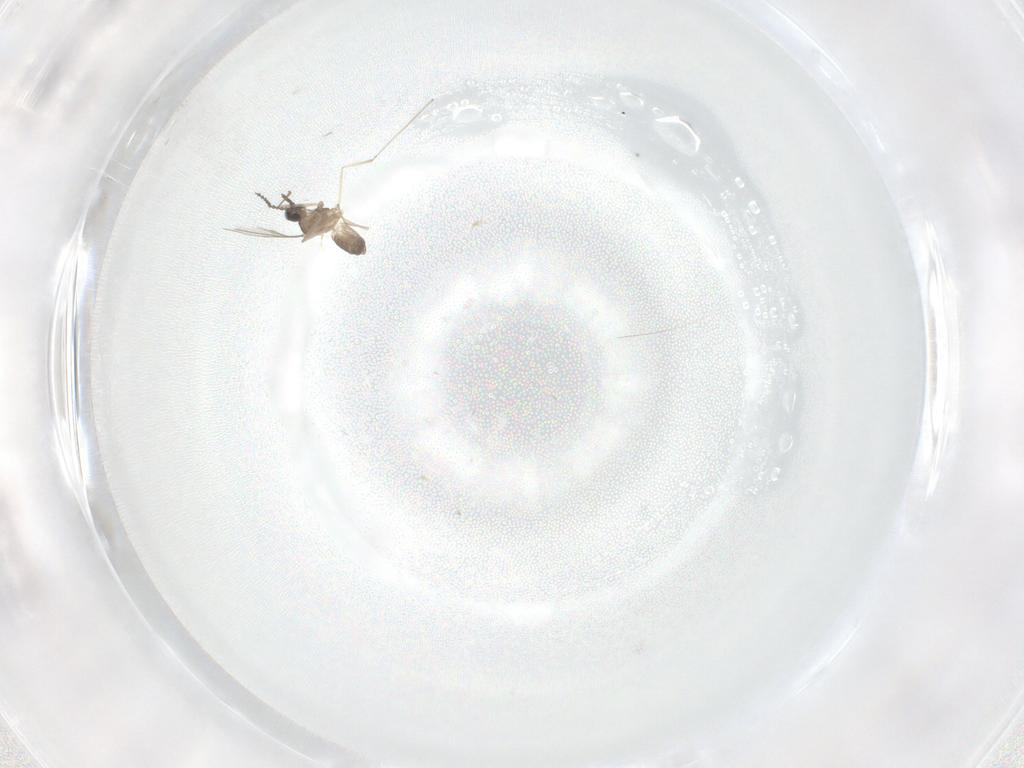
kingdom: Animalia
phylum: Arthropoda
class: Insecta
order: Diptera
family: Cecidomyiidae
